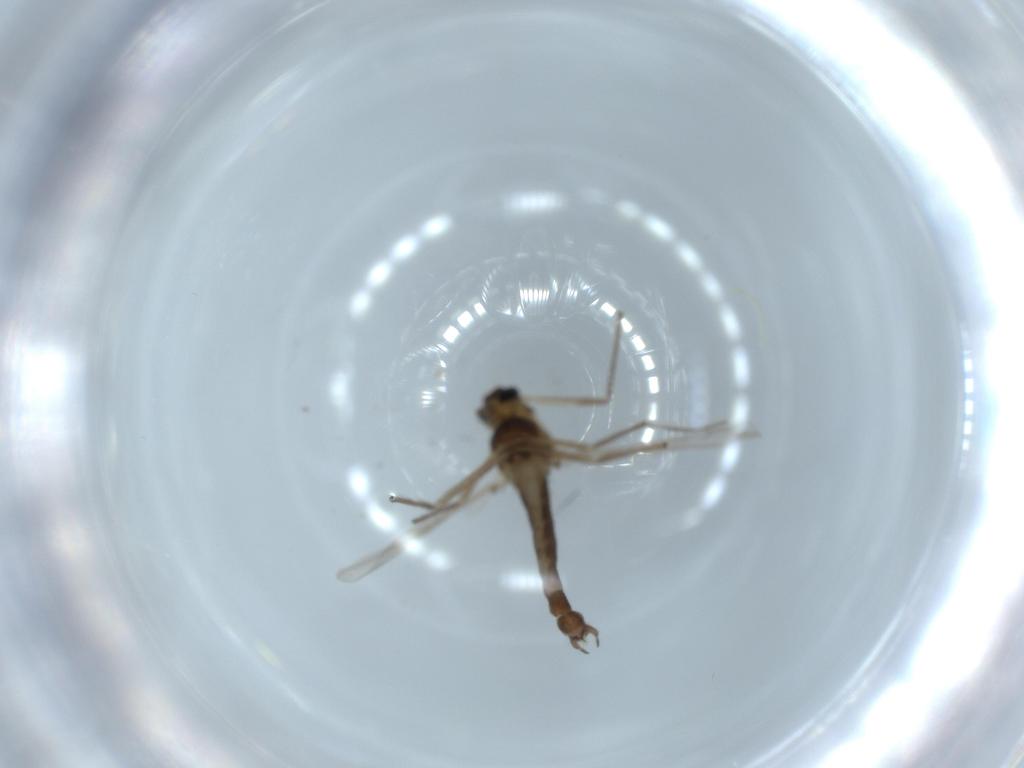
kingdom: Animalia
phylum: Arthropoda
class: Insecta
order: Diptera
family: Chironomidae
